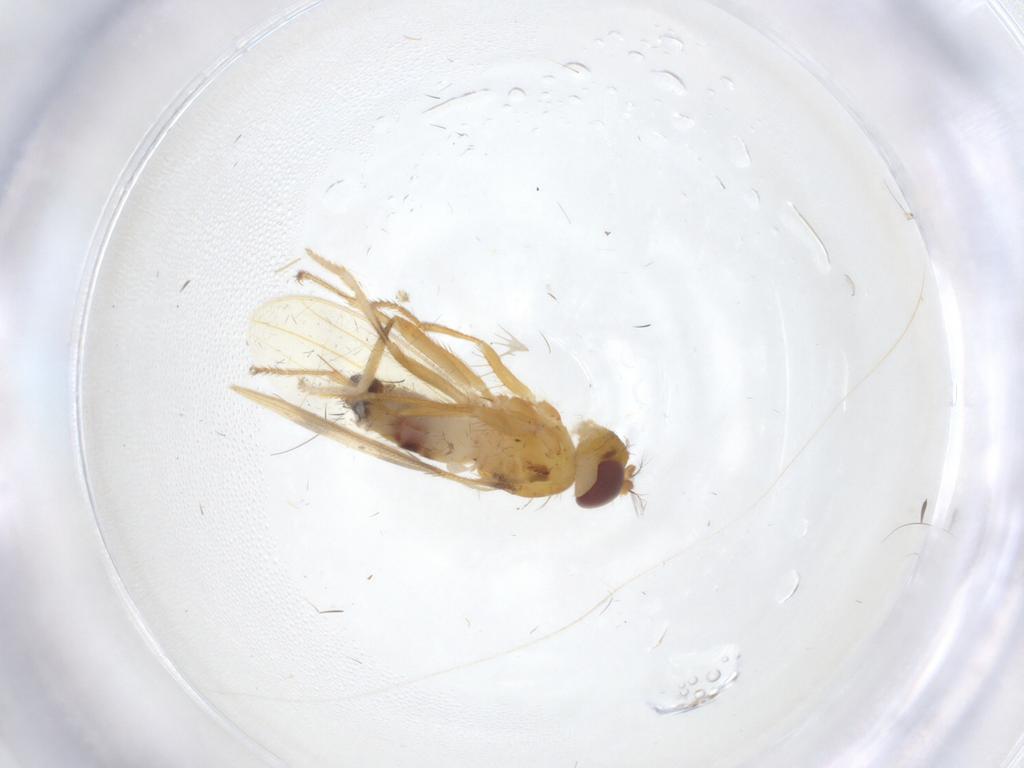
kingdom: Animalia
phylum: Arthropoda
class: Insecta
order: Diptera
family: Periscelididae
